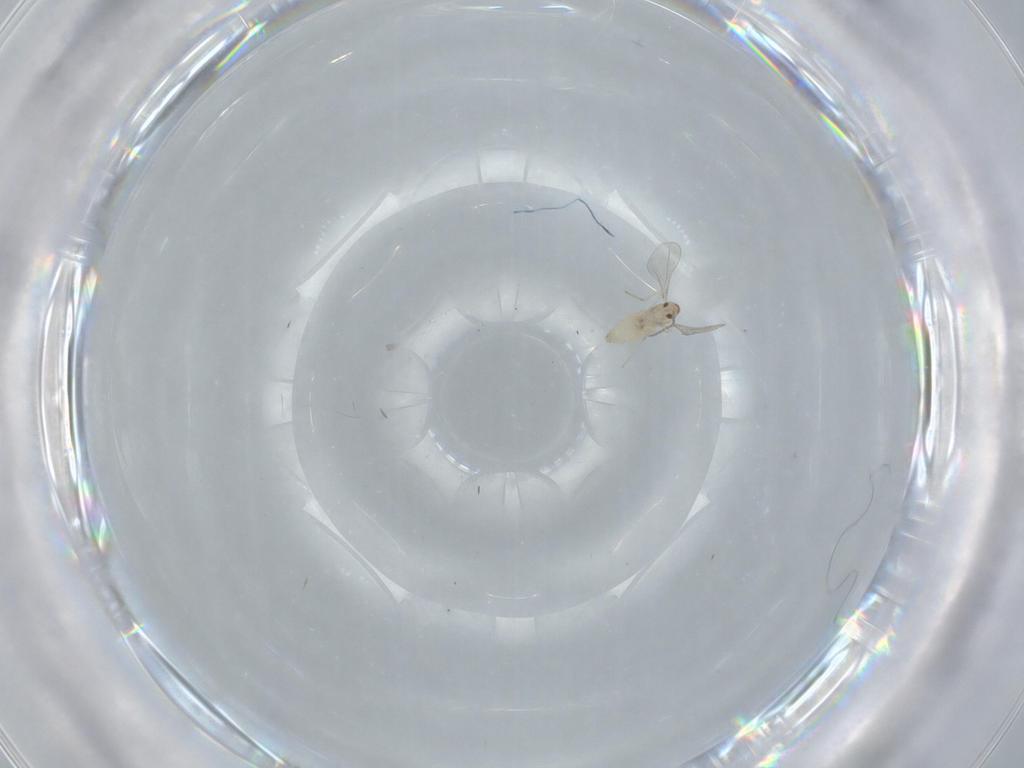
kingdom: Animalia
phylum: Arthropoda
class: Insecta
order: Diptera
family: Cecidomyiidae
